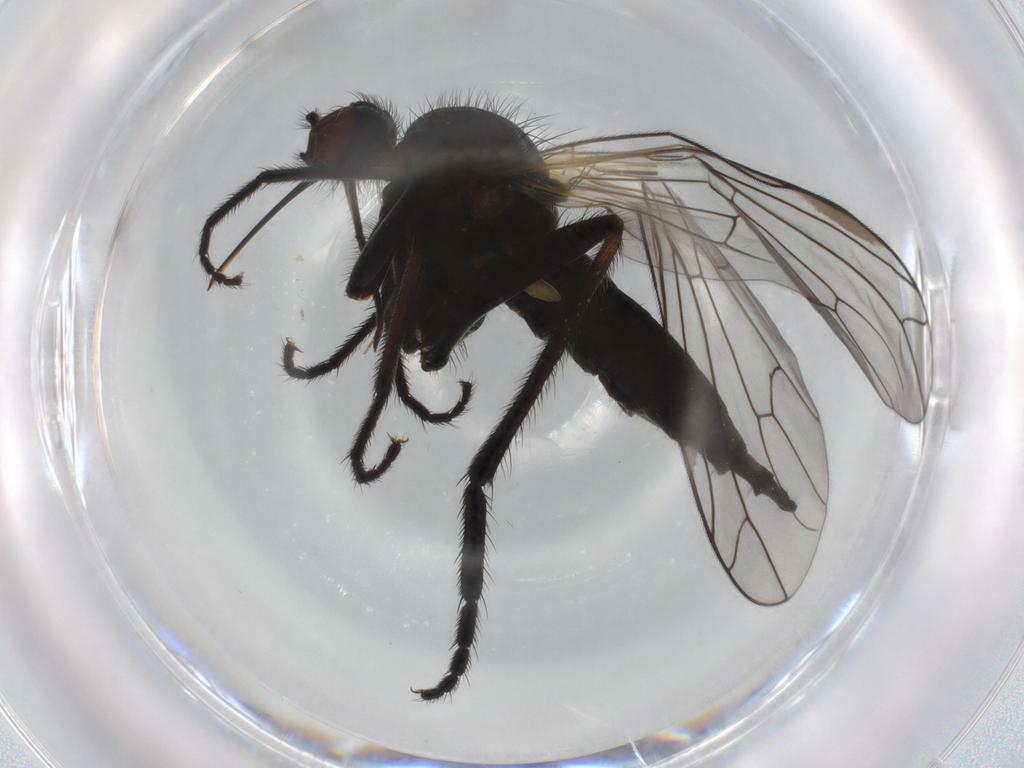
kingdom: Animalia
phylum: Arthropoda
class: Insecta
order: Diptera
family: Empididae
